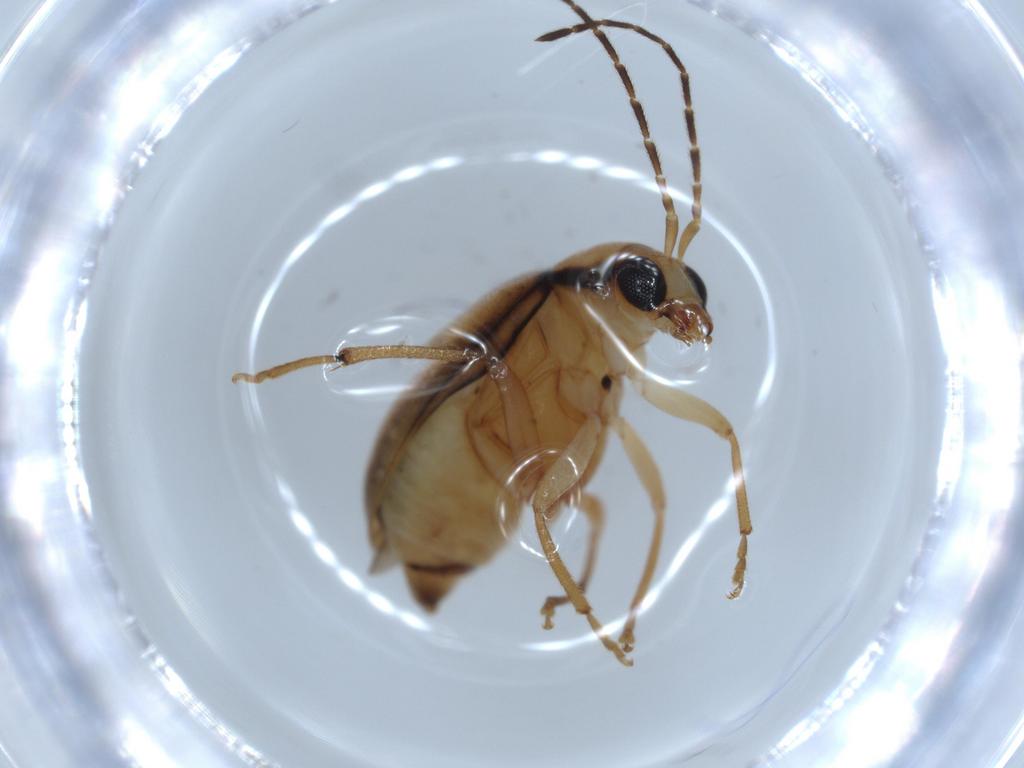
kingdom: Animalia
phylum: Arthropoda
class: Insecta
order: Coleoptera
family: Chrysomelidae
